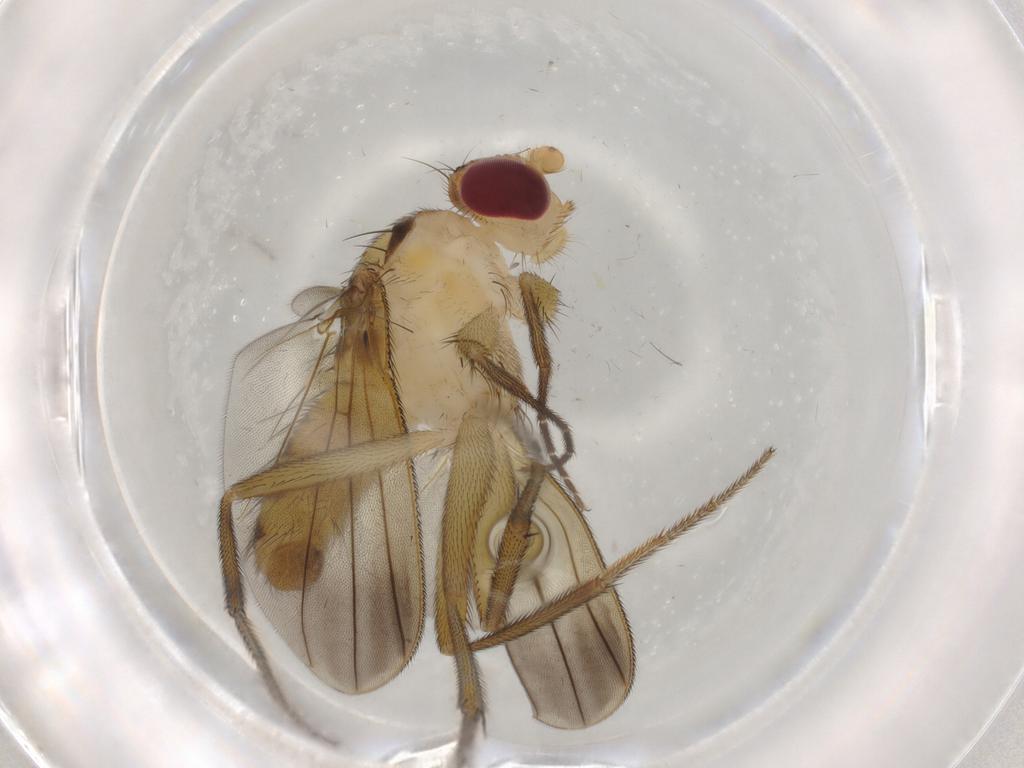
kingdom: Animalia
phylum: Arthropoda
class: Insecta
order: Diptera
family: Clusiidae
